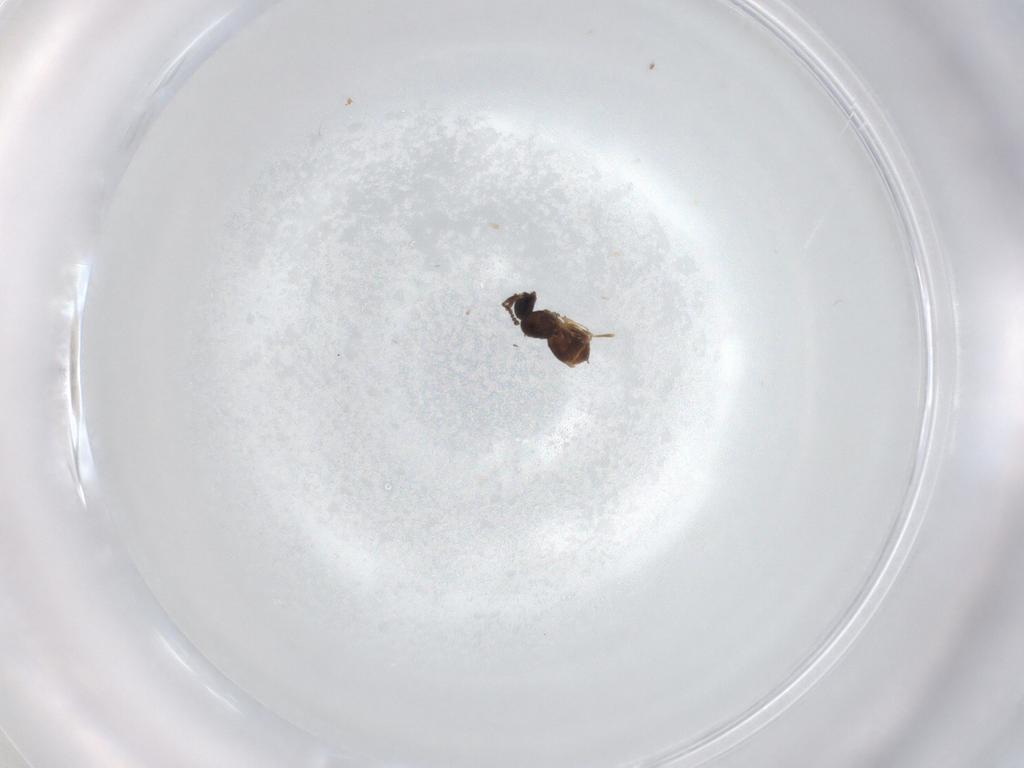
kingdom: Animalia
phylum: Arthropoda
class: Insecta
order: Hymenoptera
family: Scelionidae
